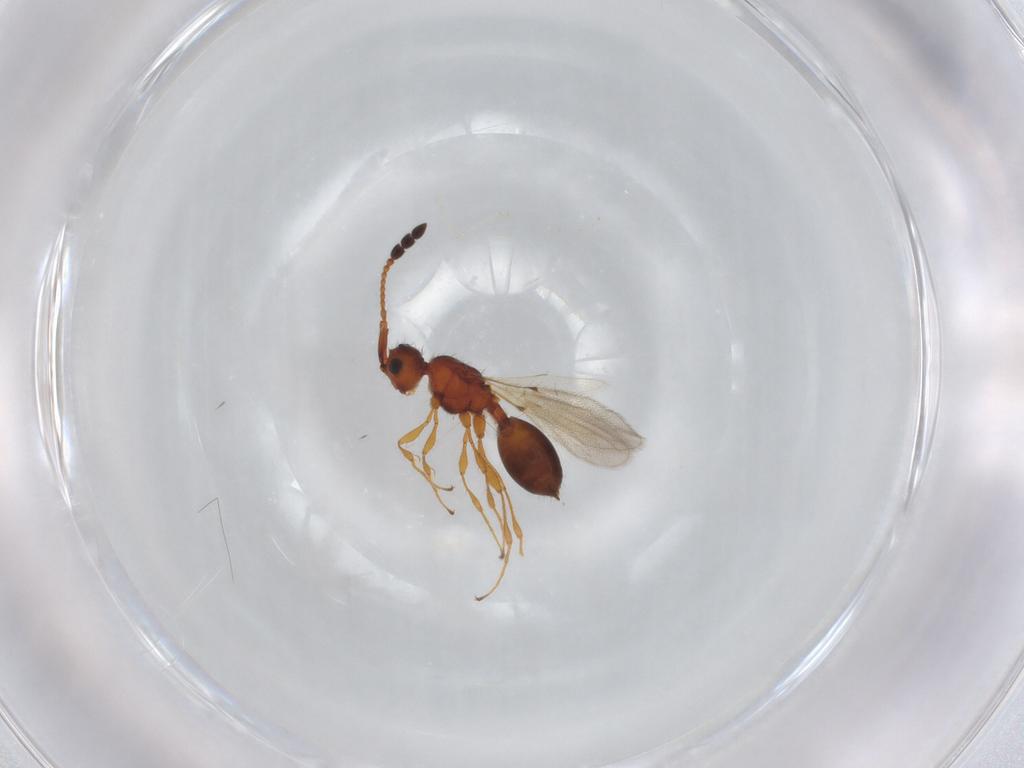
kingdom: Animalia
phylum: Arthropoda
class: Insecta
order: Hymenoptera
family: Diapriidae
